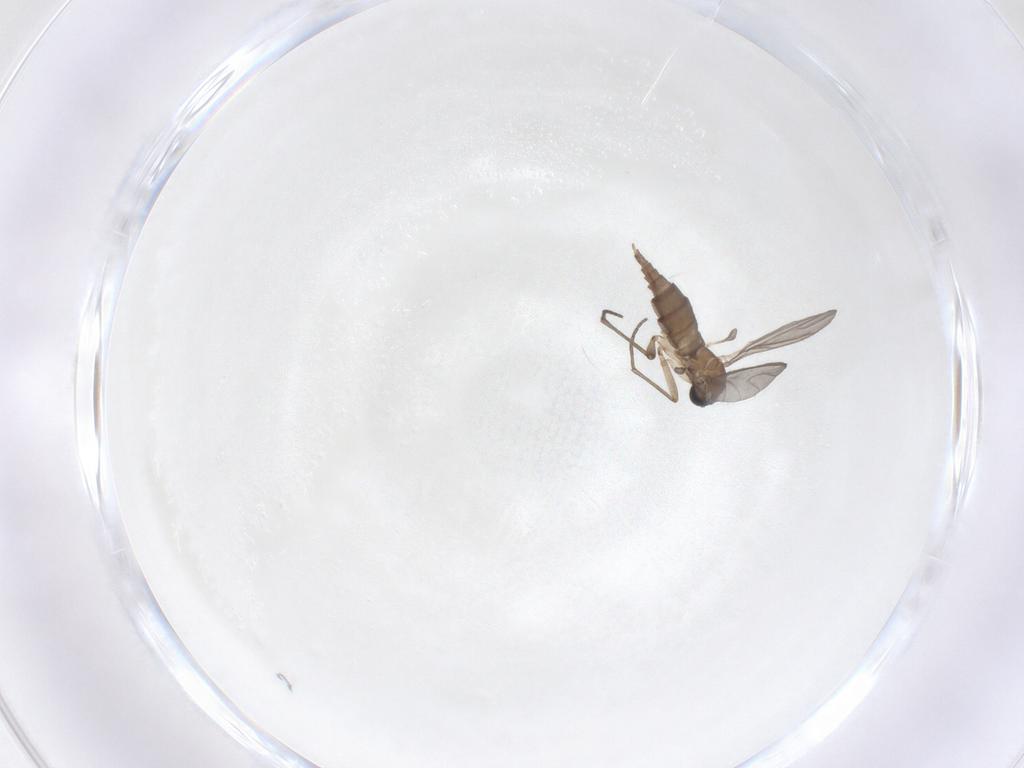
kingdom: Animalia
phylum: Arthropoda
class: Insecta
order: Diptera
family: Sciaridae
